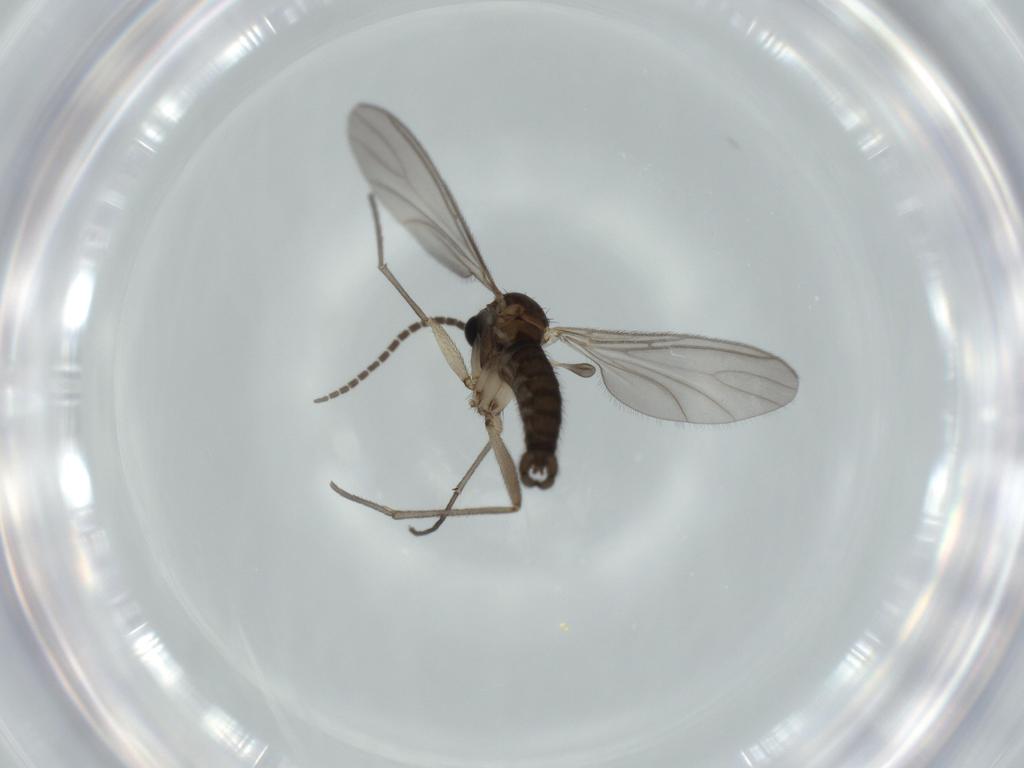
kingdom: Animalia
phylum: Arthropoda
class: Insecta
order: Diptera
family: Sciaridae
